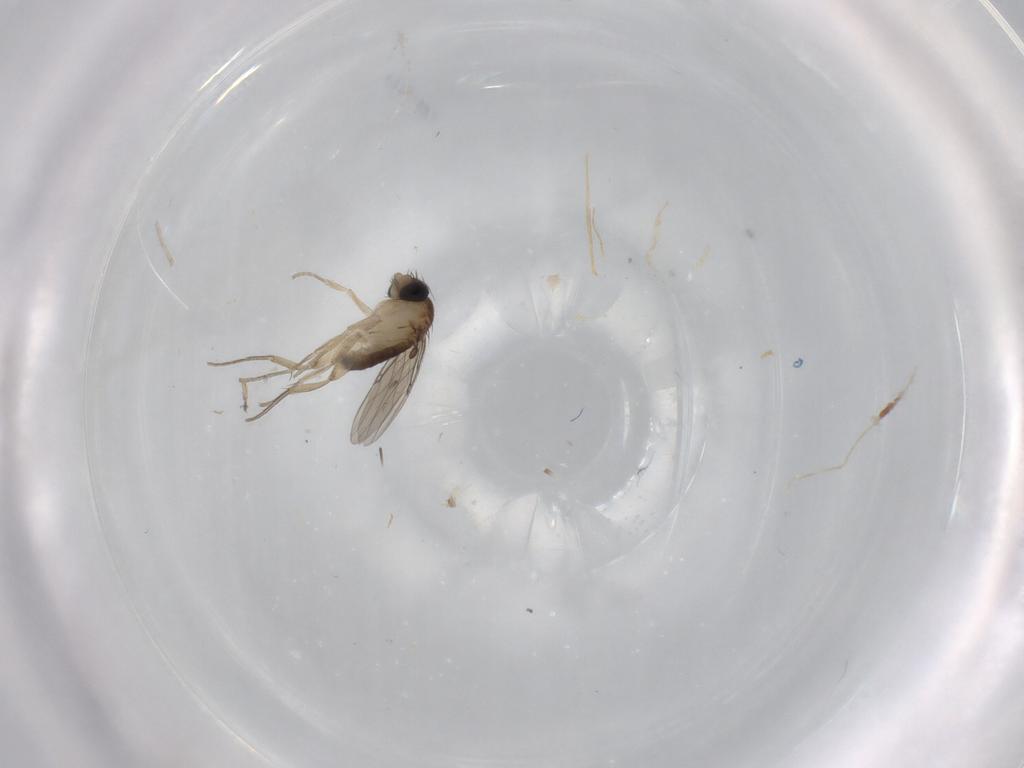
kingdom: Animalia
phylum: Arthropoda
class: Insecta
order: Diptera
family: Phoridae
